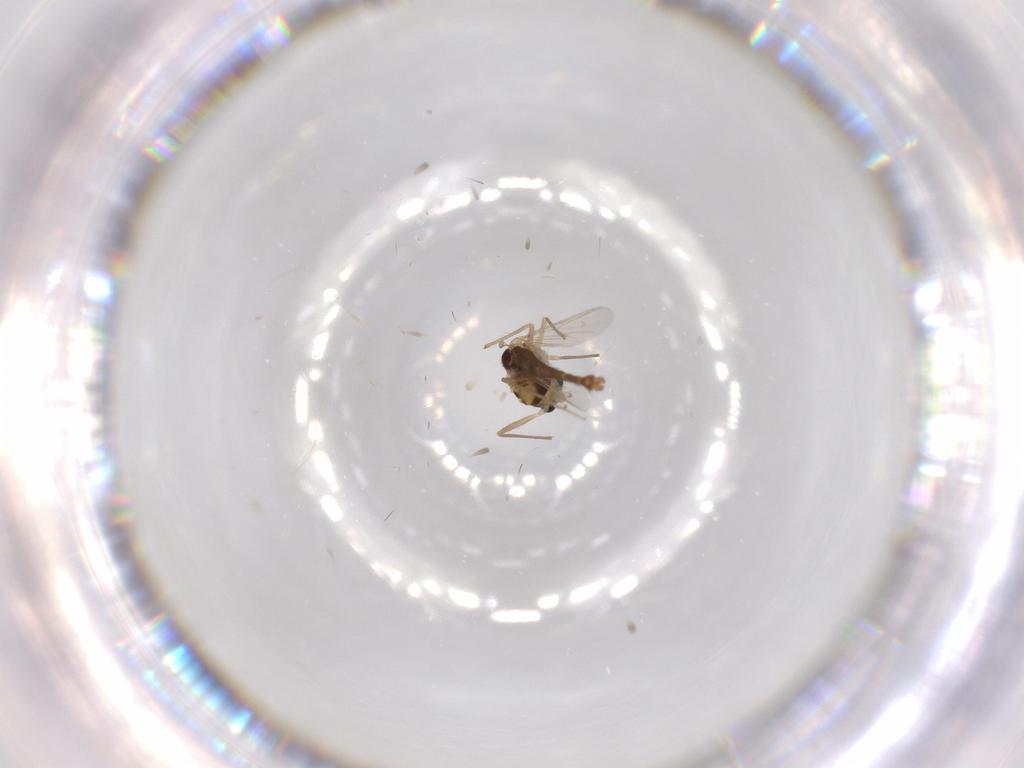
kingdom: Animalia
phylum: Arthropoda
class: Insecta
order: Diptera
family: Chironomidae
